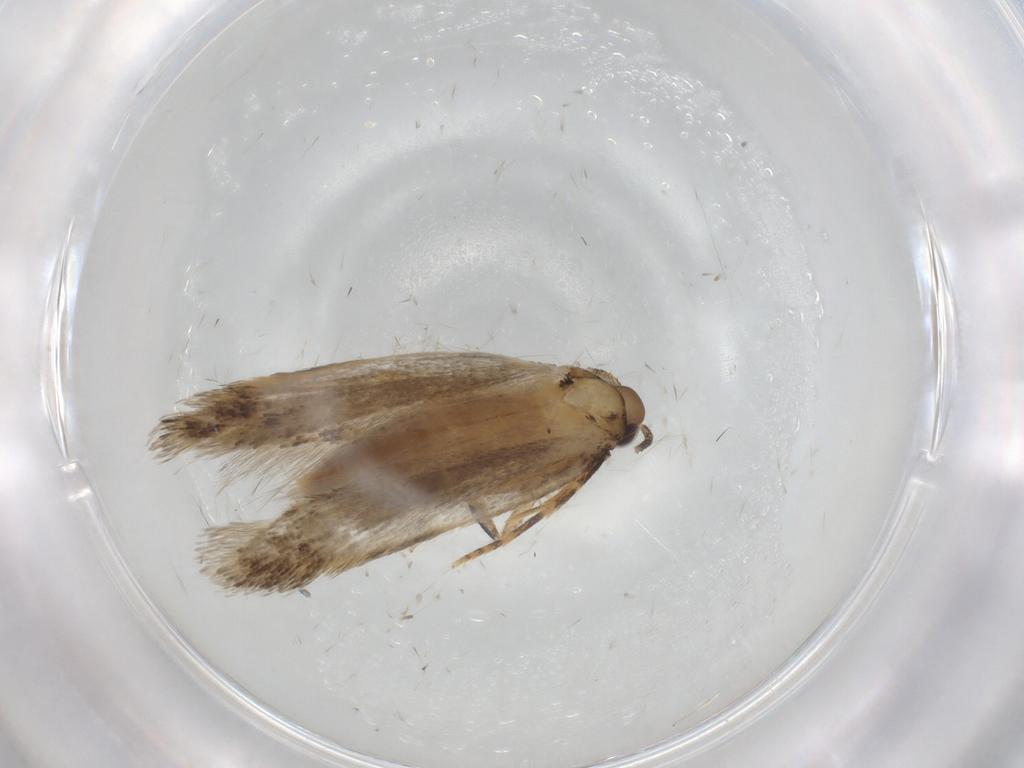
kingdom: Animalia
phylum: Arthropoda
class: Insecta
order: Lepidoptera
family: Autostichidae
